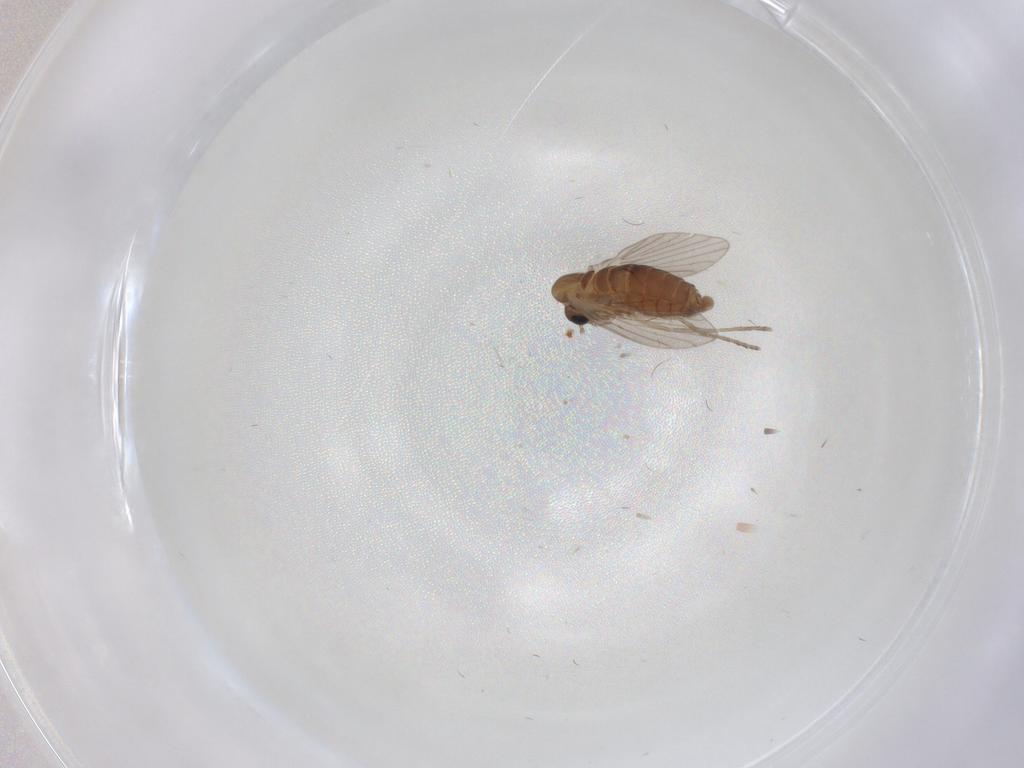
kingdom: Animalia
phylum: Arthropoda
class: Insecta
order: Diptera
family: Psychodidae
